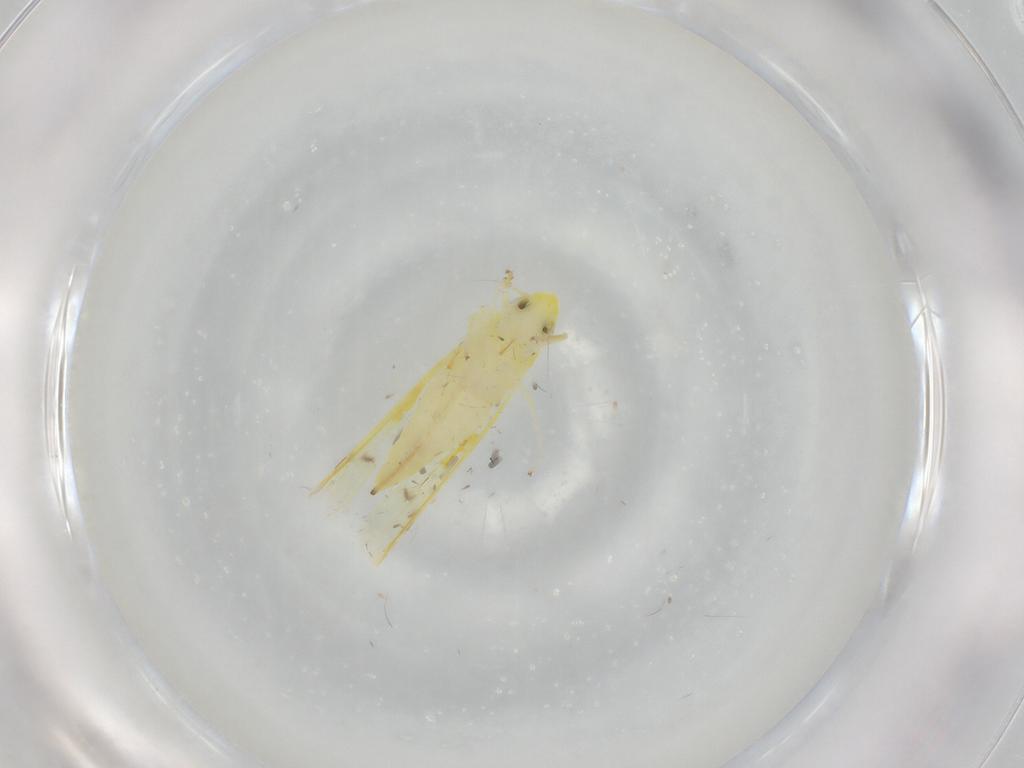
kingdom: Animalia
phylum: Arthropoda
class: Insecta
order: Hemiptera
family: Cicadellidae
